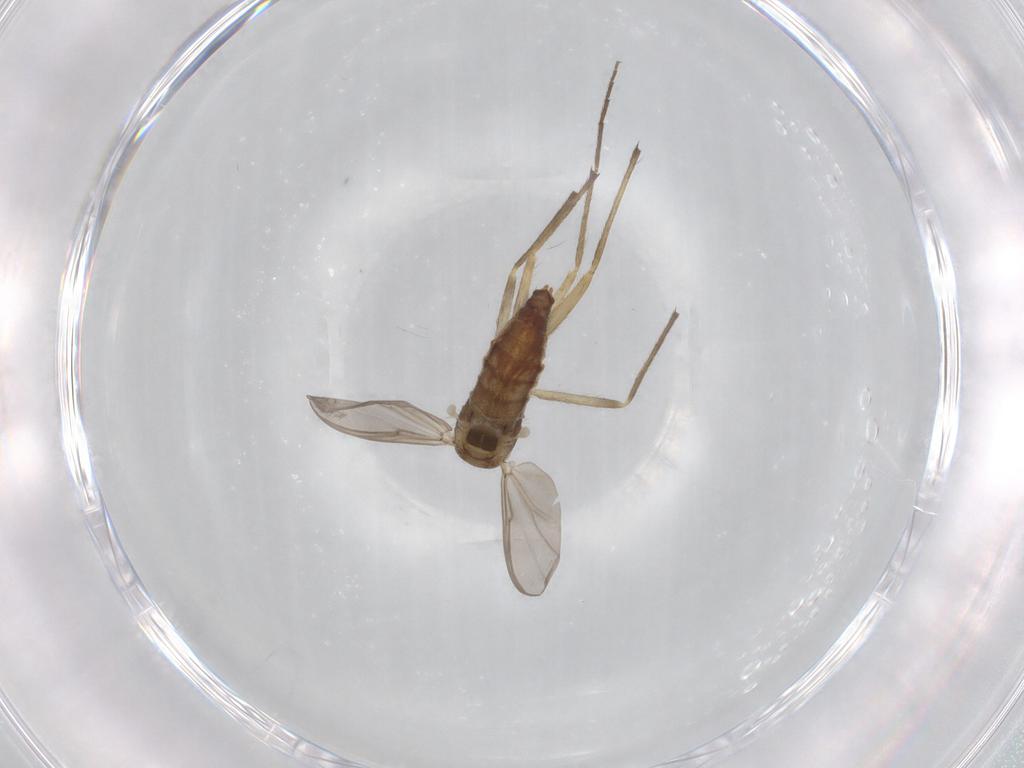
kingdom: Animalia
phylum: Arthropoda
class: Insecta
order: Diptera
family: Chironomidae
